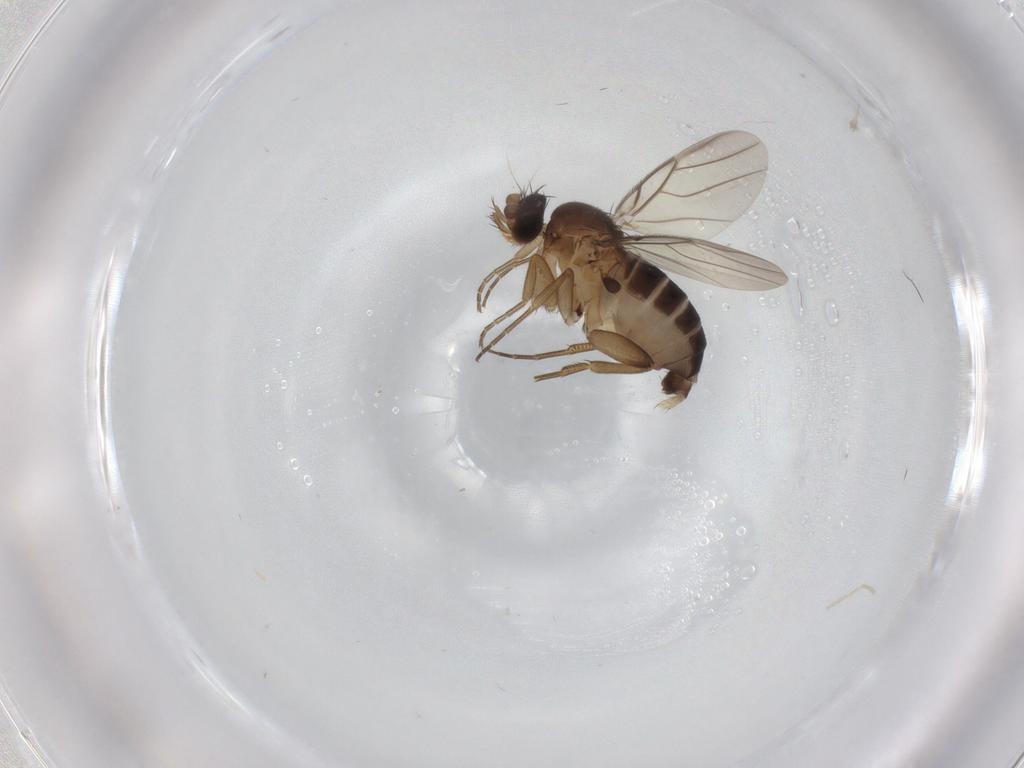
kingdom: Animalia
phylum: Arthropoda
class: Insecta
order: Diptera
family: Phoridae
